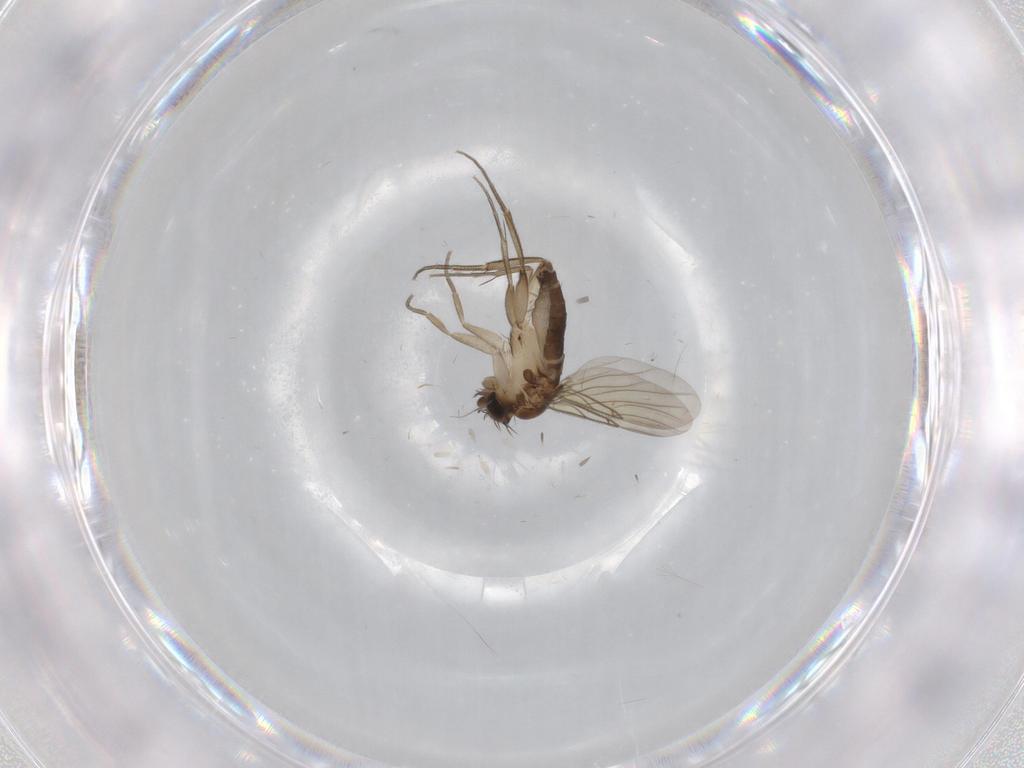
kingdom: Animalia
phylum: Arthropoda
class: Insecta
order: Diptera
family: Phoridae
